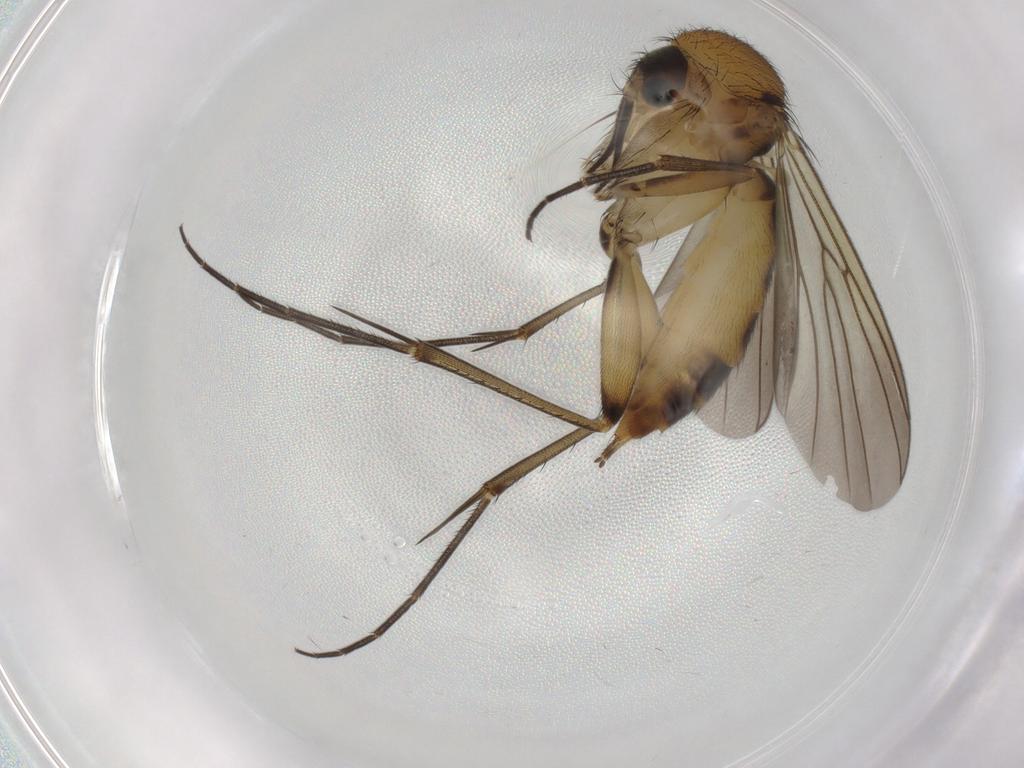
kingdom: Animalia
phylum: Arthropoda
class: Insecta
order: Diptera
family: Mycetophilidae
